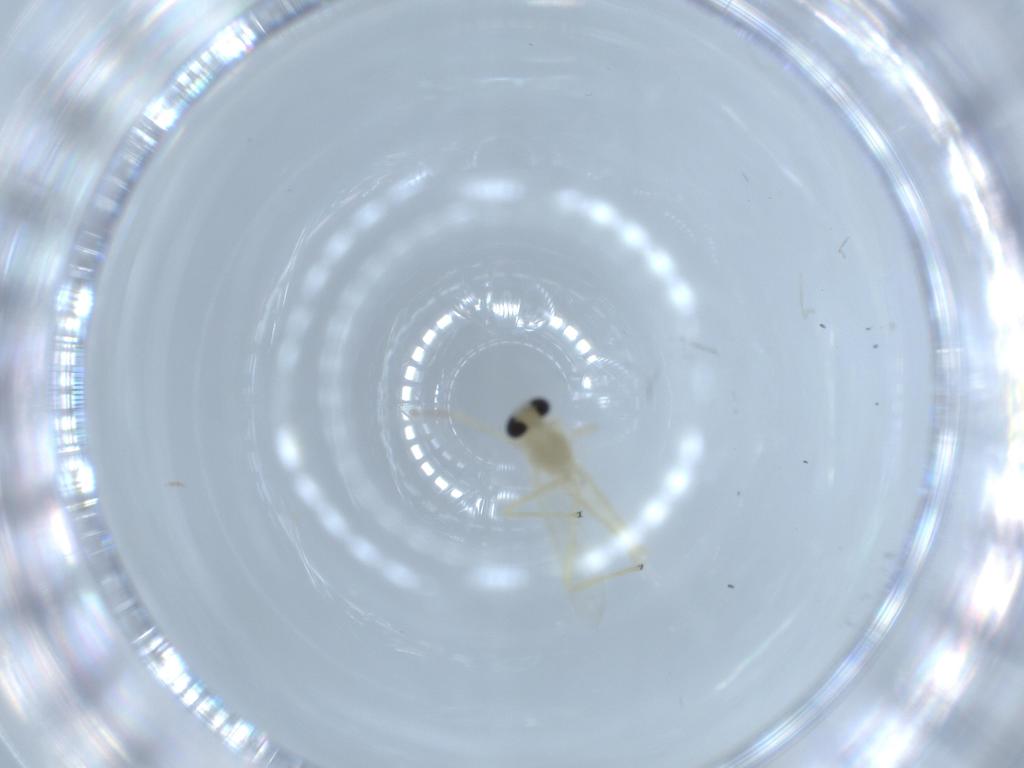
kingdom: Animalia
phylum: Arthropoda
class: Insecta
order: Diptera
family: Chironomidae
